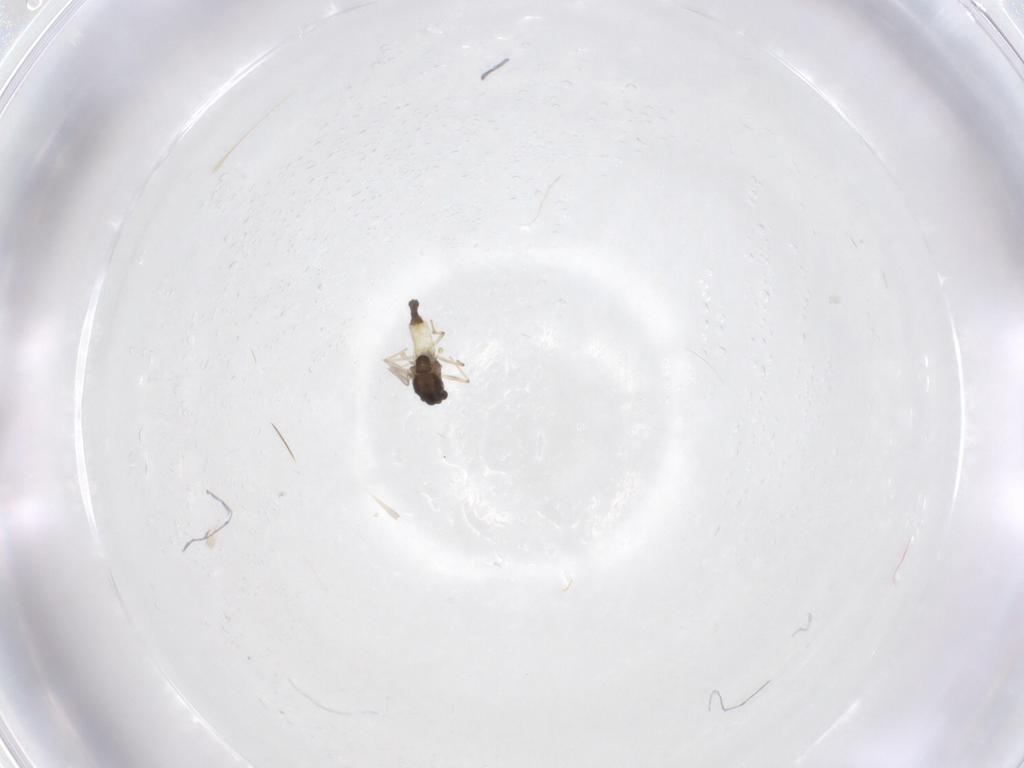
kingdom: Animalia
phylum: Arthropoda
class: Insecta
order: Diptera
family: Chironomidae
